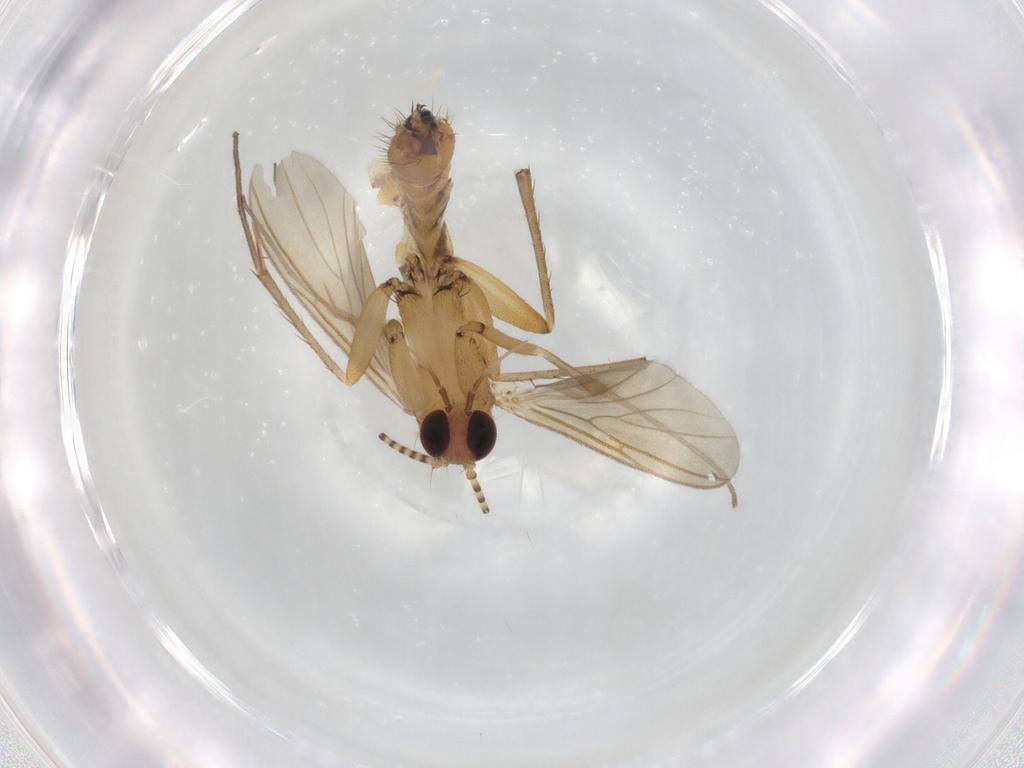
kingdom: Animalia
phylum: Arthropoda
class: Insecta
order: Diptera
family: Mycetophilidae
